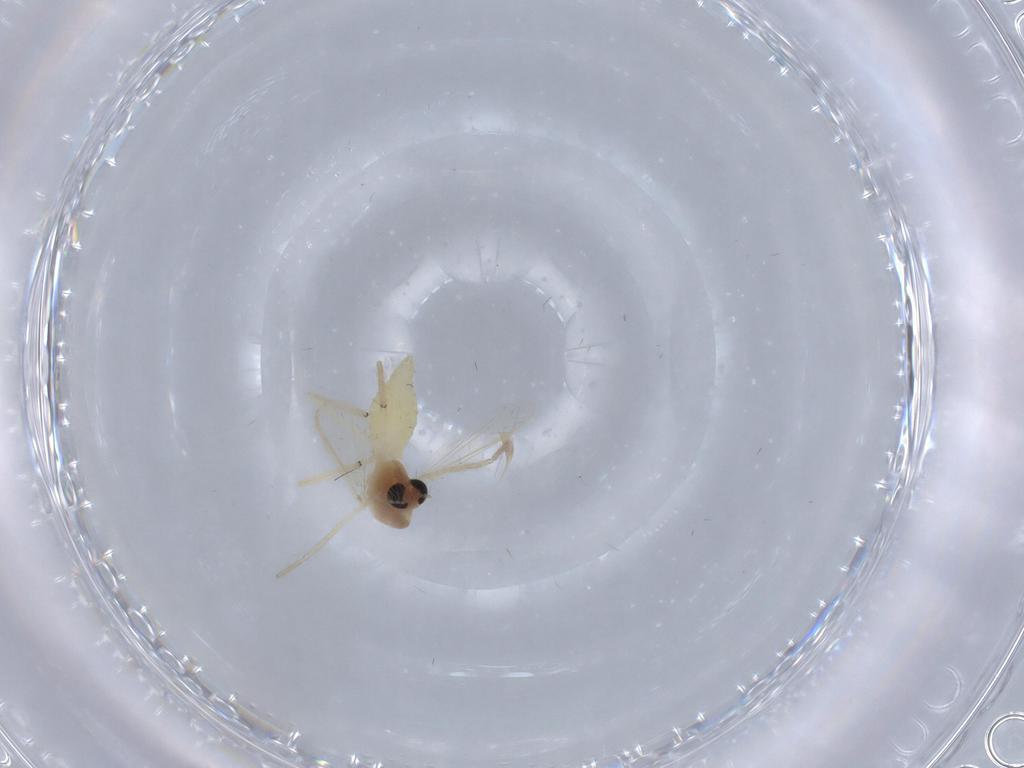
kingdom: Animalia
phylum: Arthropoda
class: Insecta
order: Diptera
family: Chironomidae
